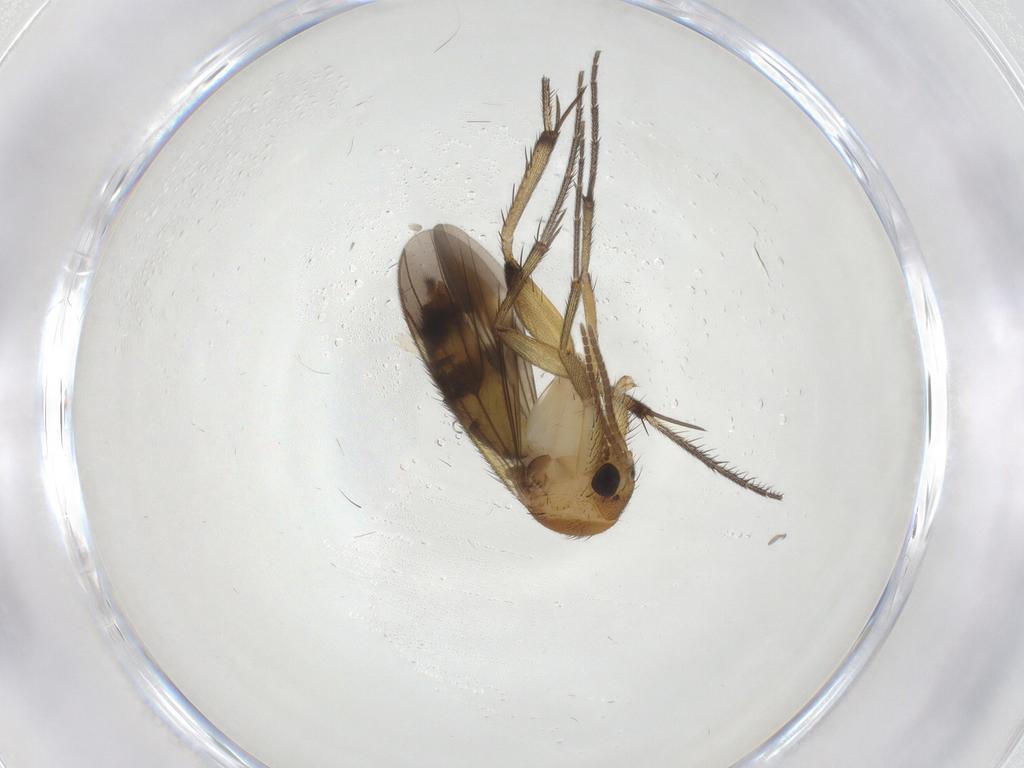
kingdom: Animalia
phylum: Arthropoda
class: Insecta
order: Diptera
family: Mycetophilidae
